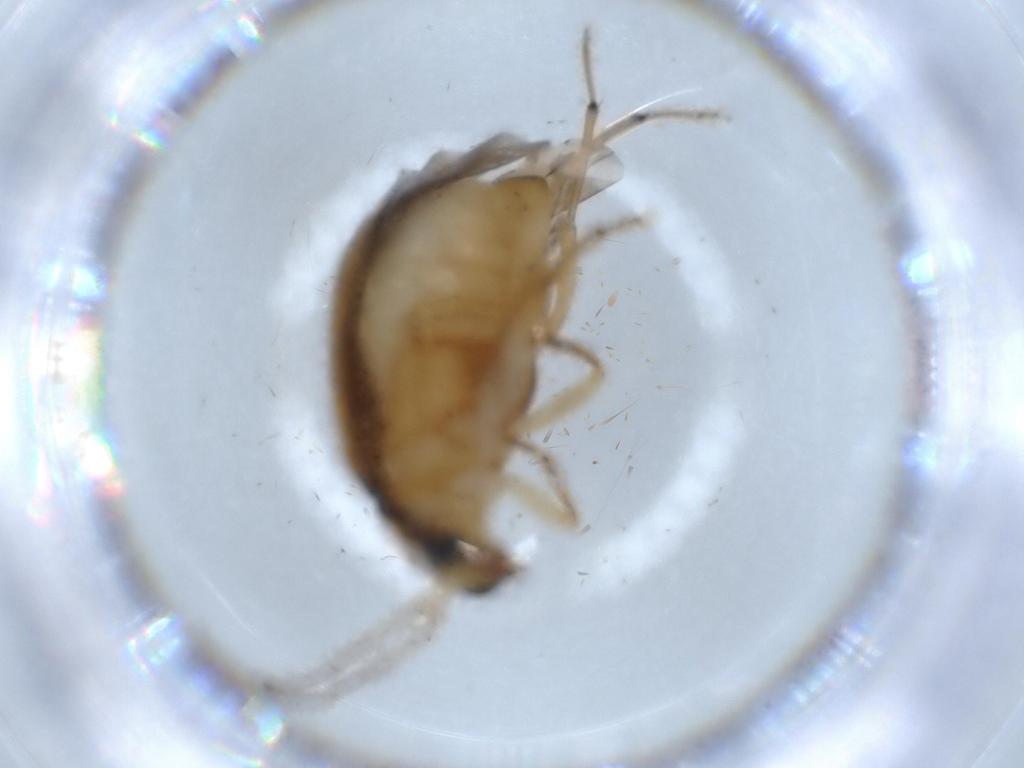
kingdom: Animalia
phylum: Arthropoda
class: Insecta
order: Coleoptera
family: Chrysomelidae
